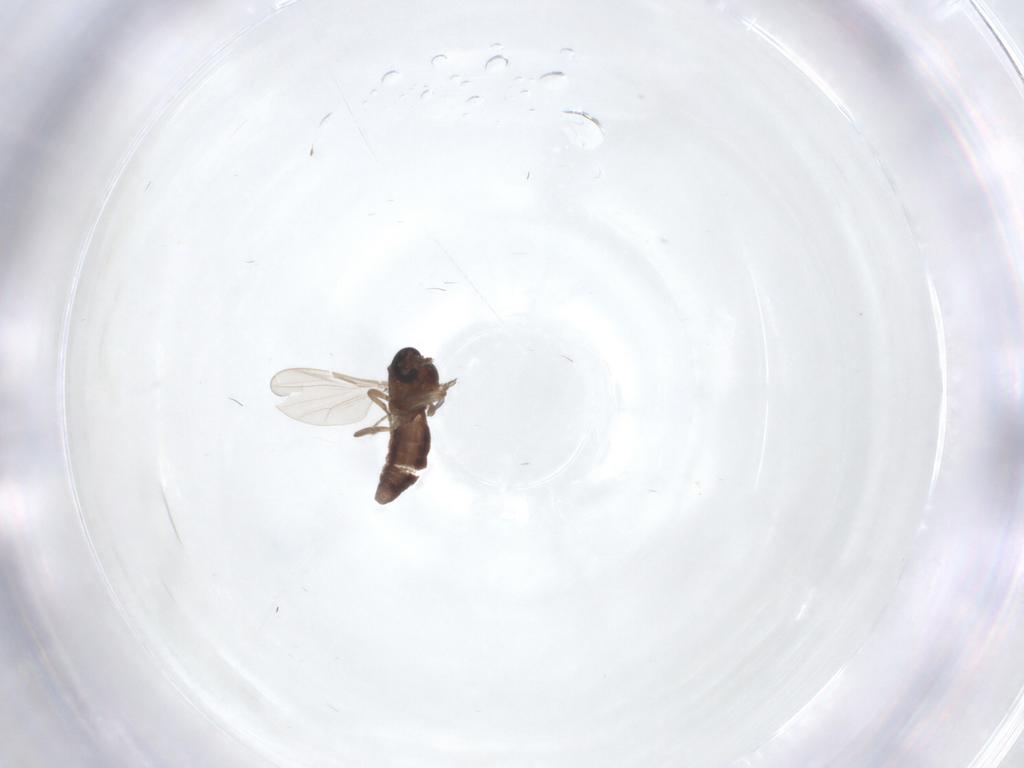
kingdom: Animalia
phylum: Arthropoda
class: Insecta
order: Diptera
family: Ceratopogonidae
